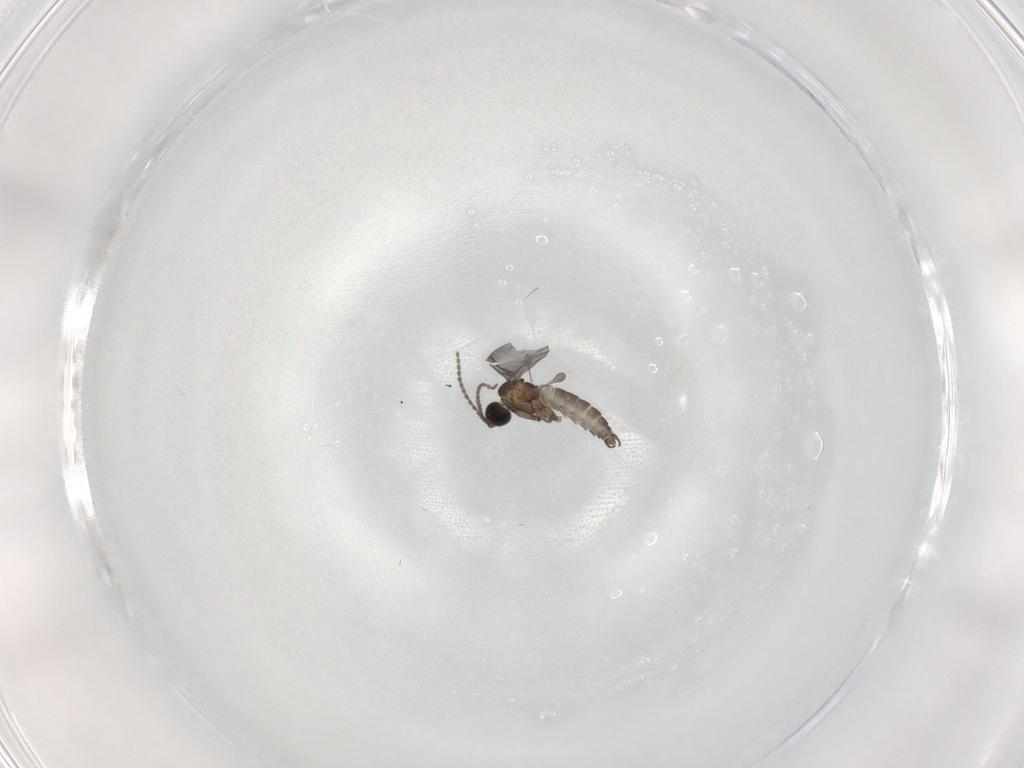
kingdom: Animalia
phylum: Arthropoda
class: Insecta
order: Diptera
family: Sciaridae
